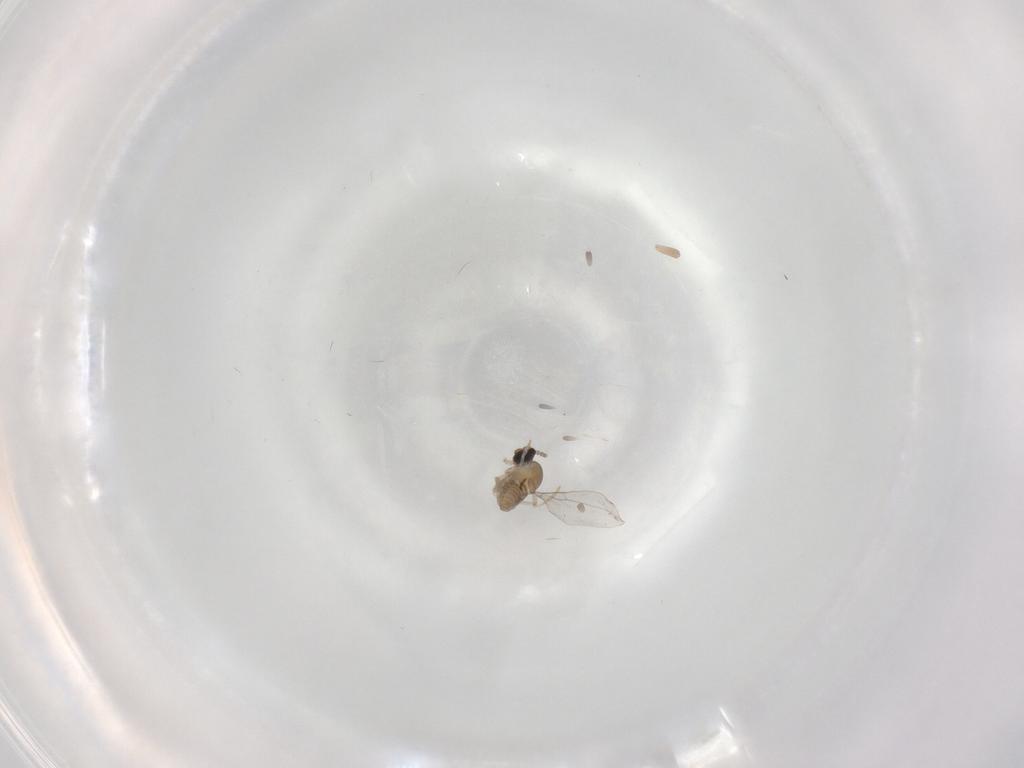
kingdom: Animalia
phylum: Arthropoda
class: Insecta
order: Diptera
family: Cecidomyiidae
